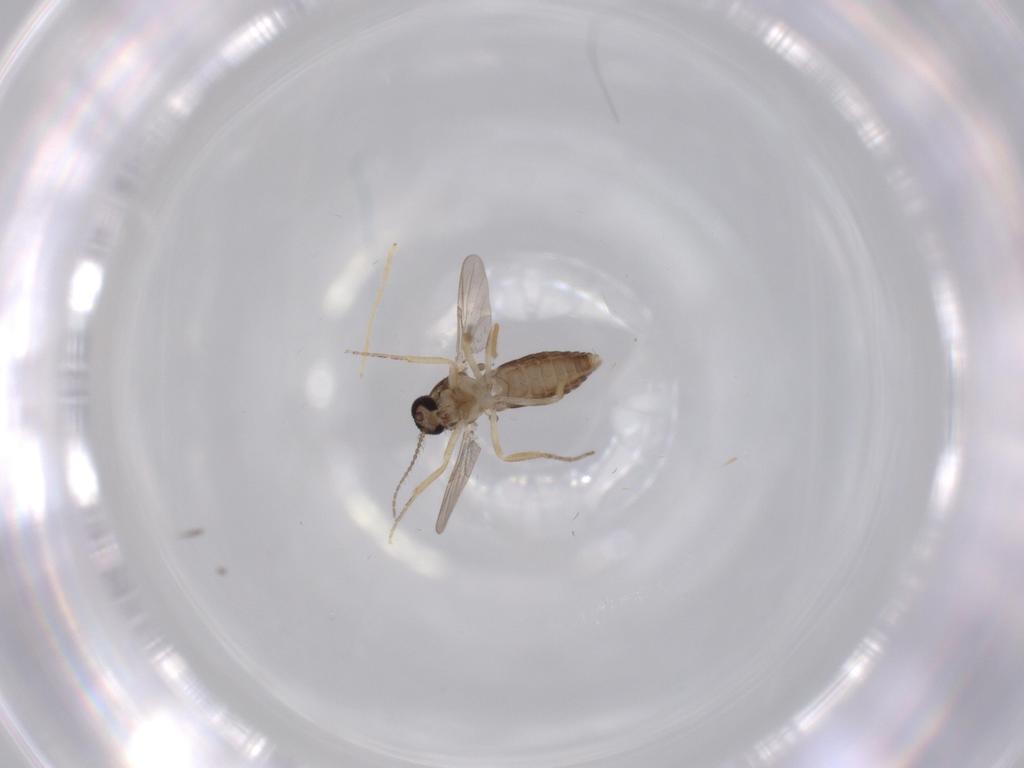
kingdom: Animalia
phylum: Arthropoda
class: Insecta
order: Diptera
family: Ceratopogonidae
